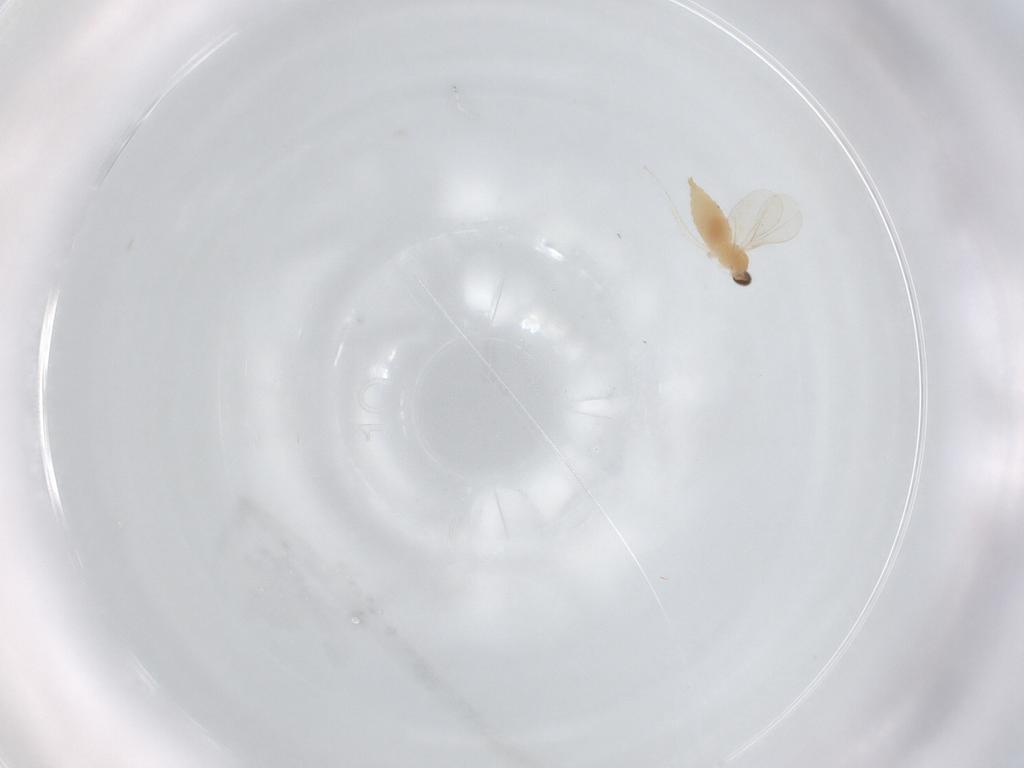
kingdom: Animalia
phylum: Arthropoda
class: Insecta
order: Diptera
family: Cecidomyiidae
